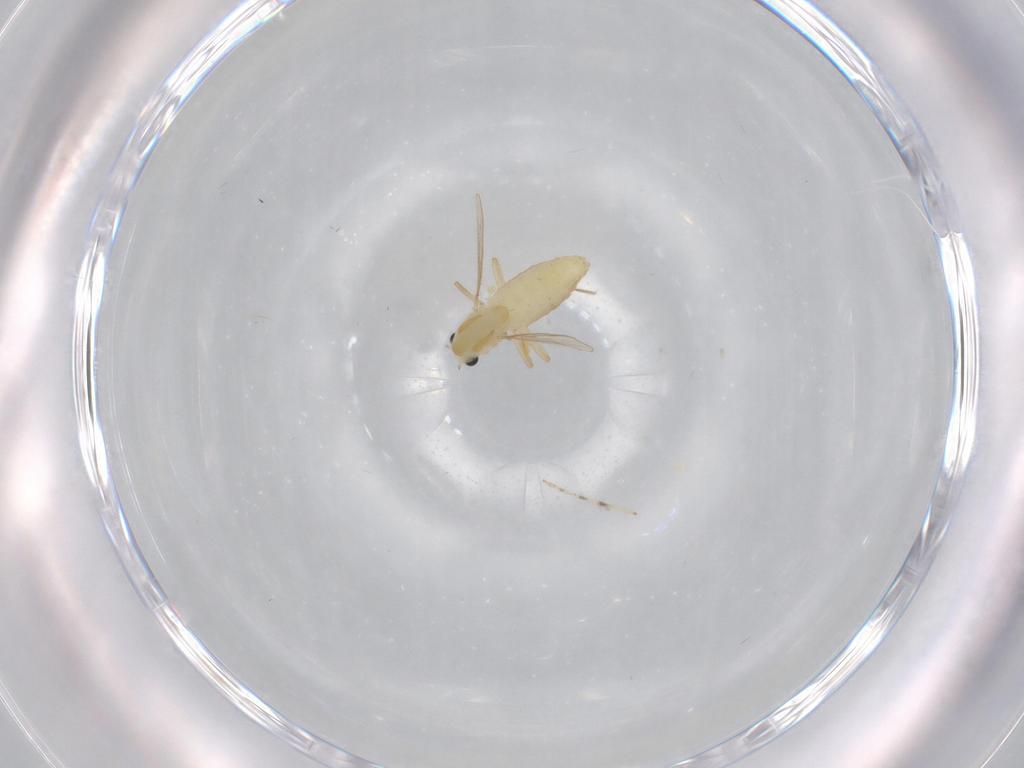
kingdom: Animalia
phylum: Arthropoda
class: Insecta
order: Diptera
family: Chironomidae
